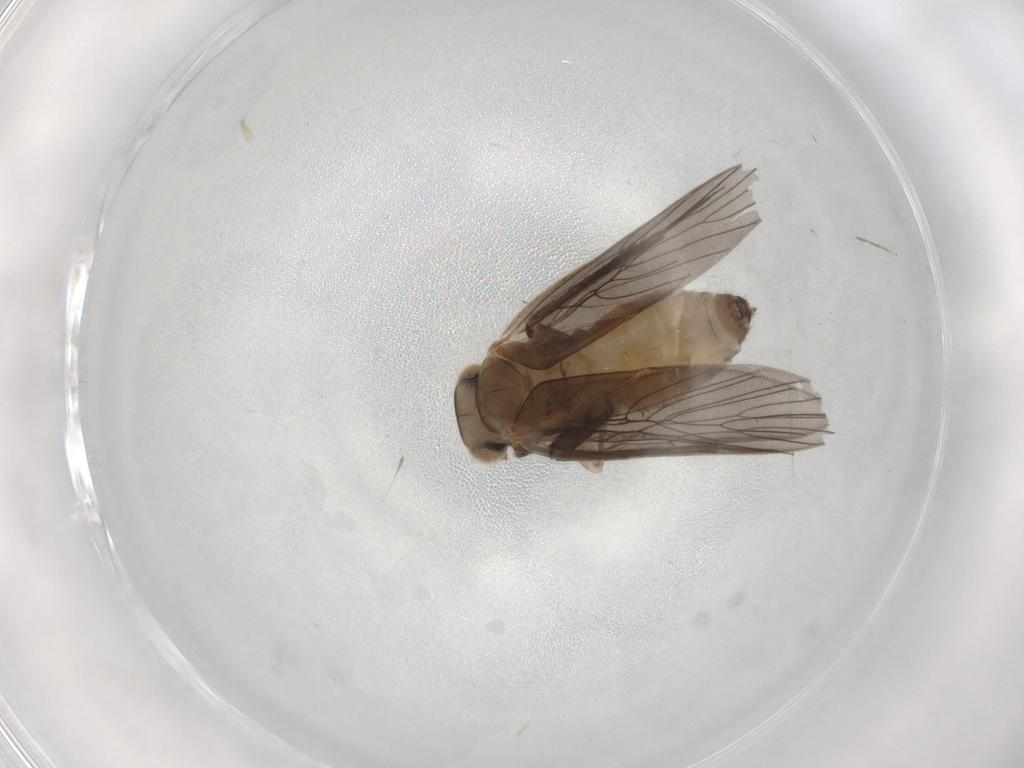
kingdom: Animalia
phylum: Arthropoda
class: Insecta
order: Psocodea
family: Lepidopsocidae
